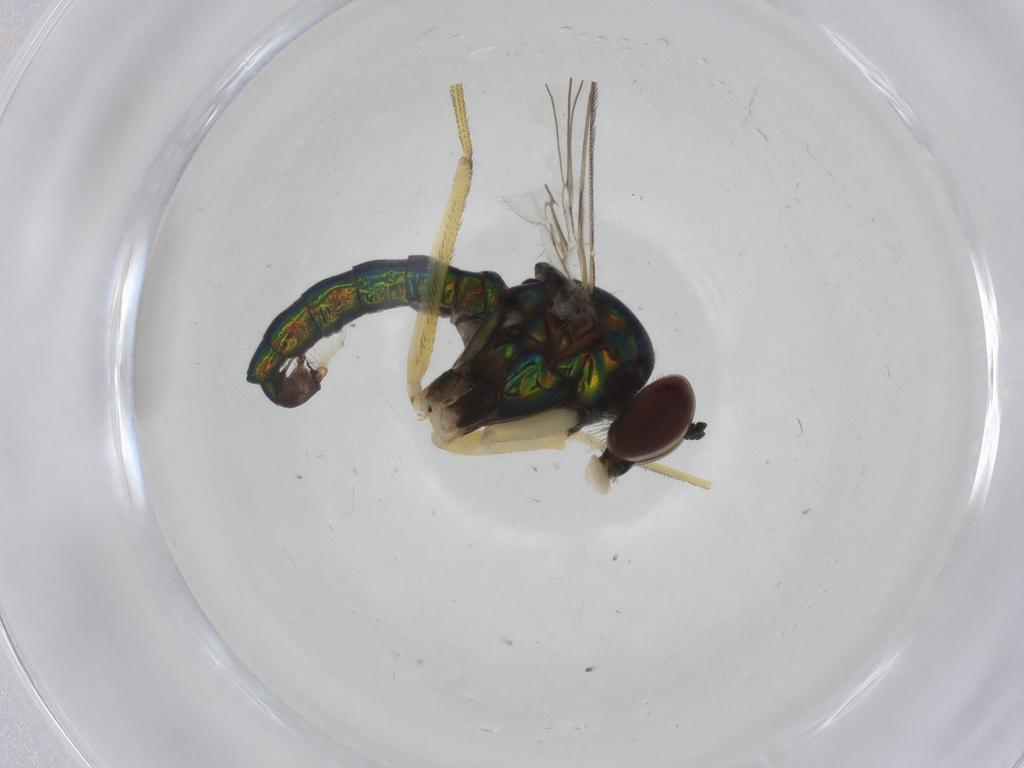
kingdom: Animalia
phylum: Arthropoda
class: Insecta
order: Diptera
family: Dolichopodidae
